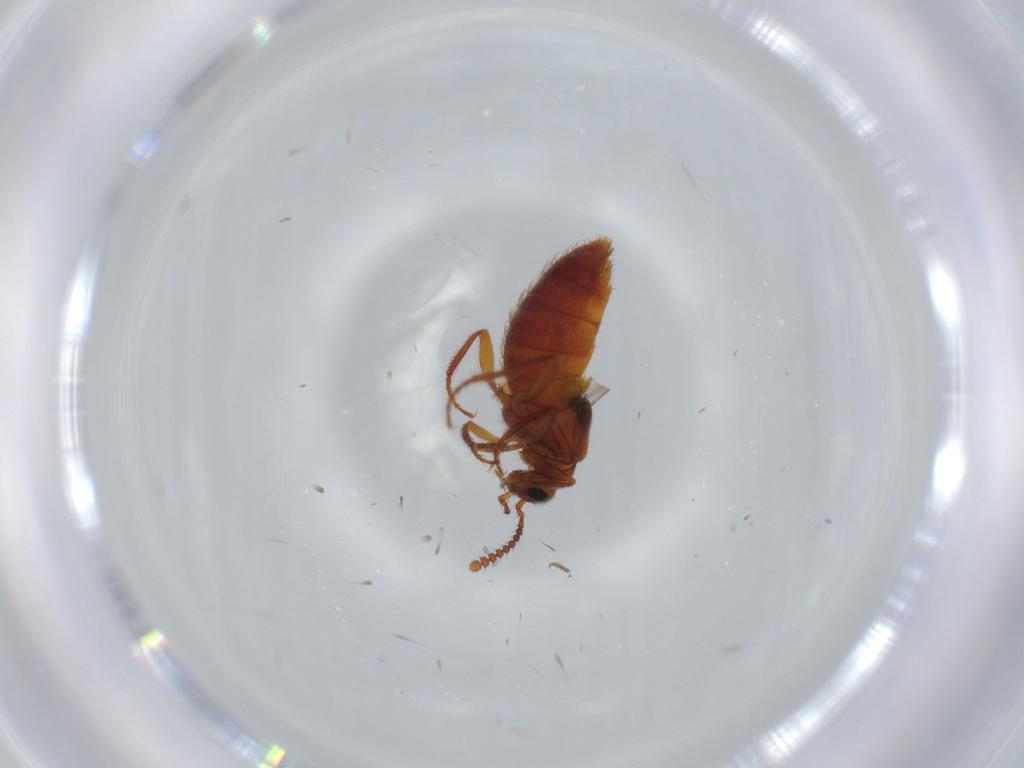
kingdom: Animalia
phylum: Arthropoda
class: Insecta
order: Coleoptera
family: Staphylinidae
